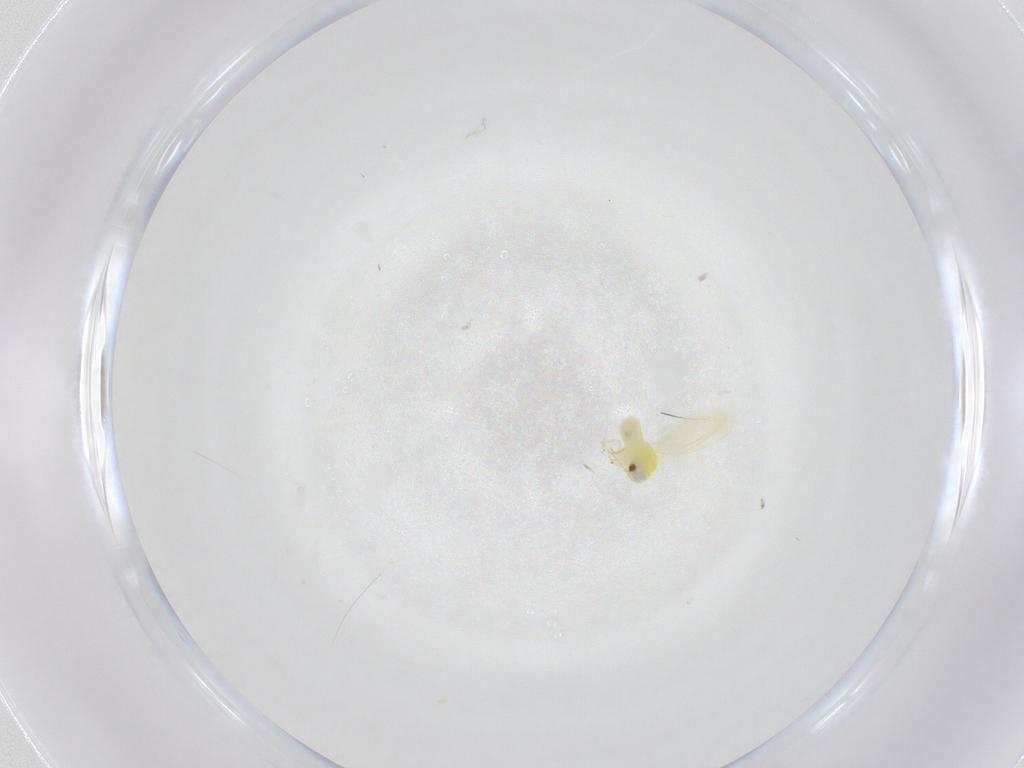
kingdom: Animalia
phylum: Arthropoda
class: Insecta
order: Hemiptera
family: Aleyrodidae
